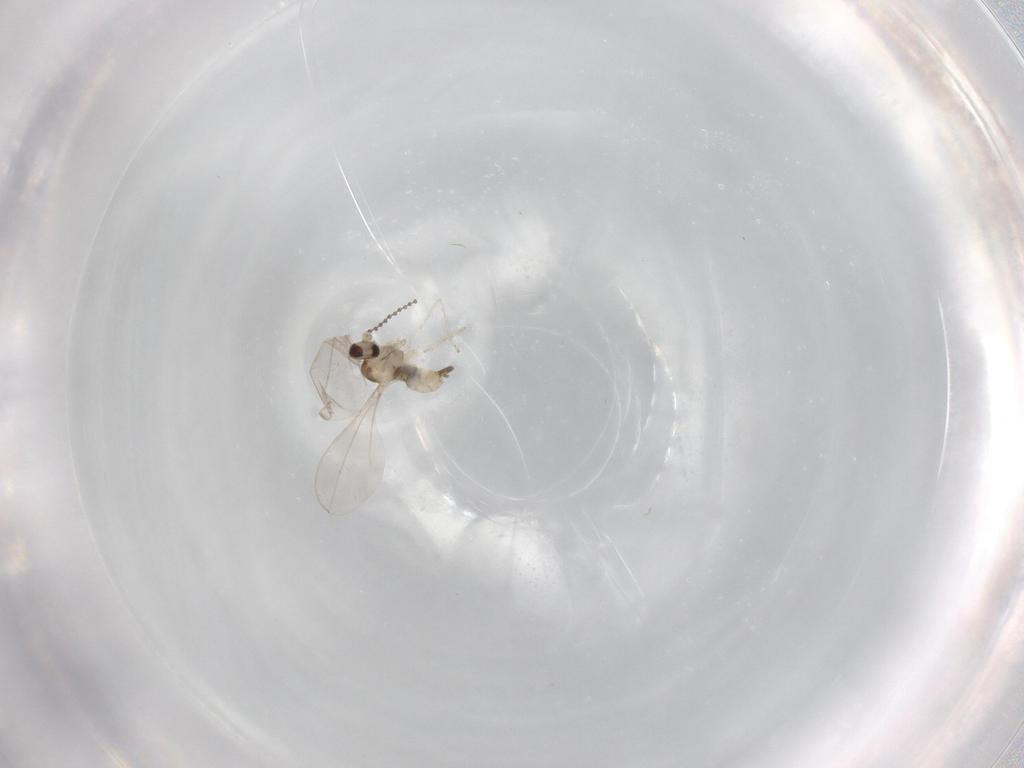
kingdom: Animalia
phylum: Arthropoda
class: Insecta
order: Diptera
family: Cecidomyiidae
